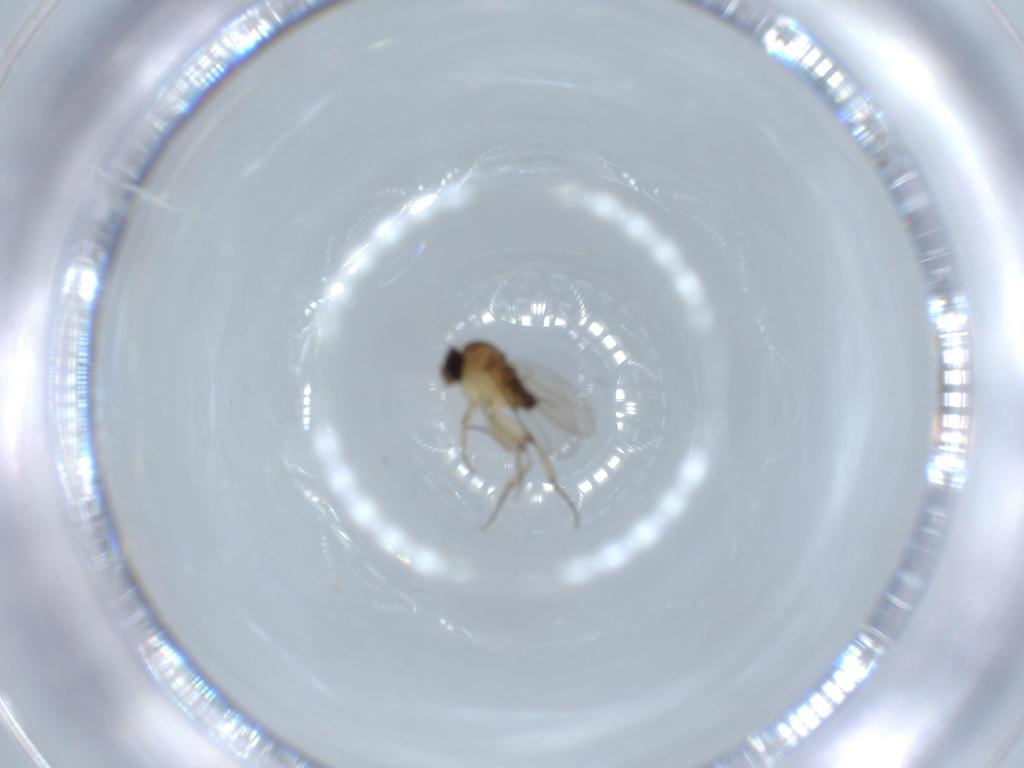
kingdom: Animalia
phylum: Arthropoda
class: Insecta
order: Diptera
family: Phoridae
